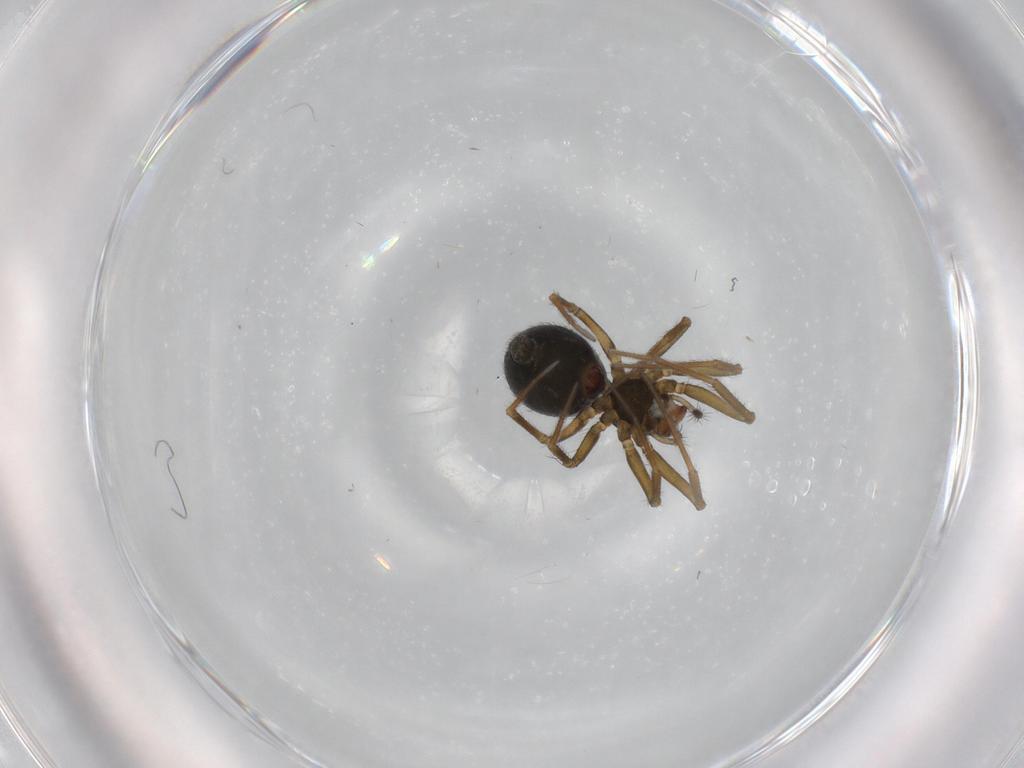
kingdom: Animalia
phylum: Arthropoda
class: Arachnida
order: Araneae
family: Linyphiidae
